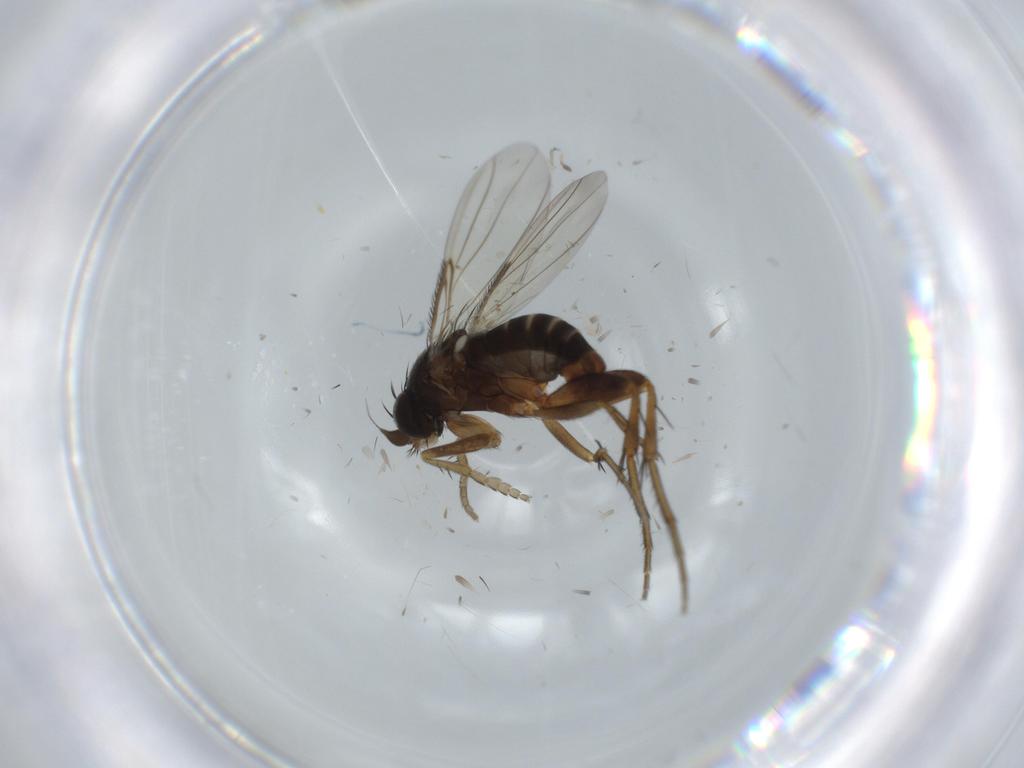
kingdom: Animalia
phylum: Arthropoda
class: Insecta
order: Diptera
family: Milichiidae
